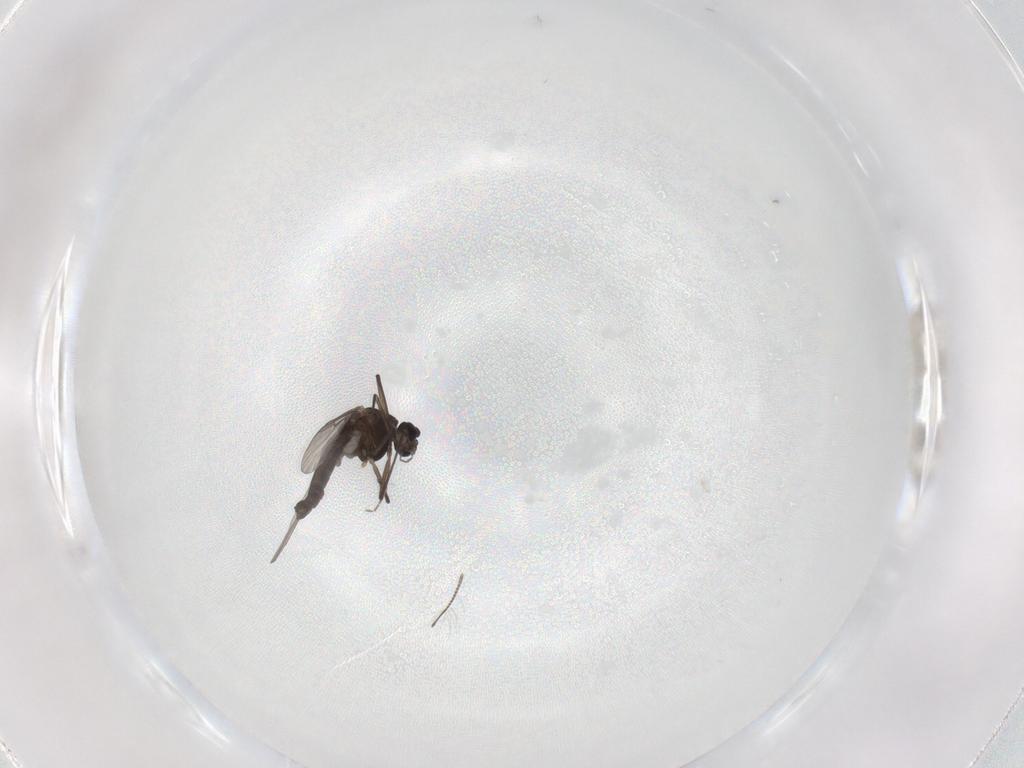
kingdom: Animalia
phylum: Arthropoda
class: Insecta
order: Diptera
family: Chironomidae
